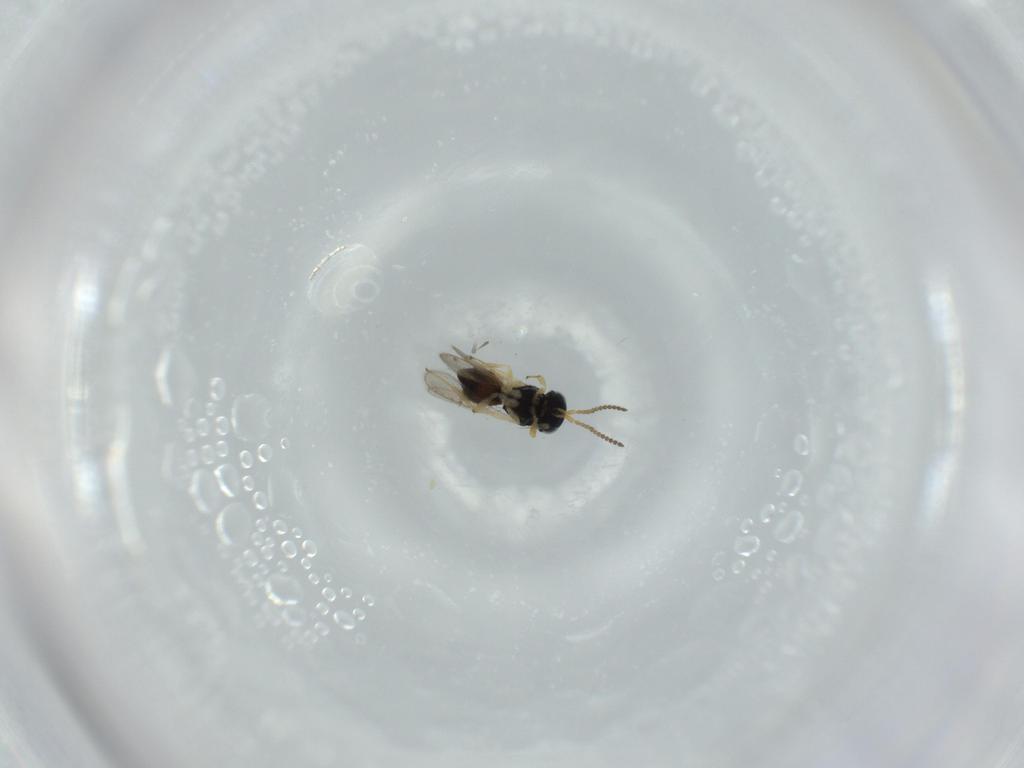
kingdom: Animalia
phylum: Arthropoda
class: Insecta
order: Hymenoptera
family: Scelionidae
